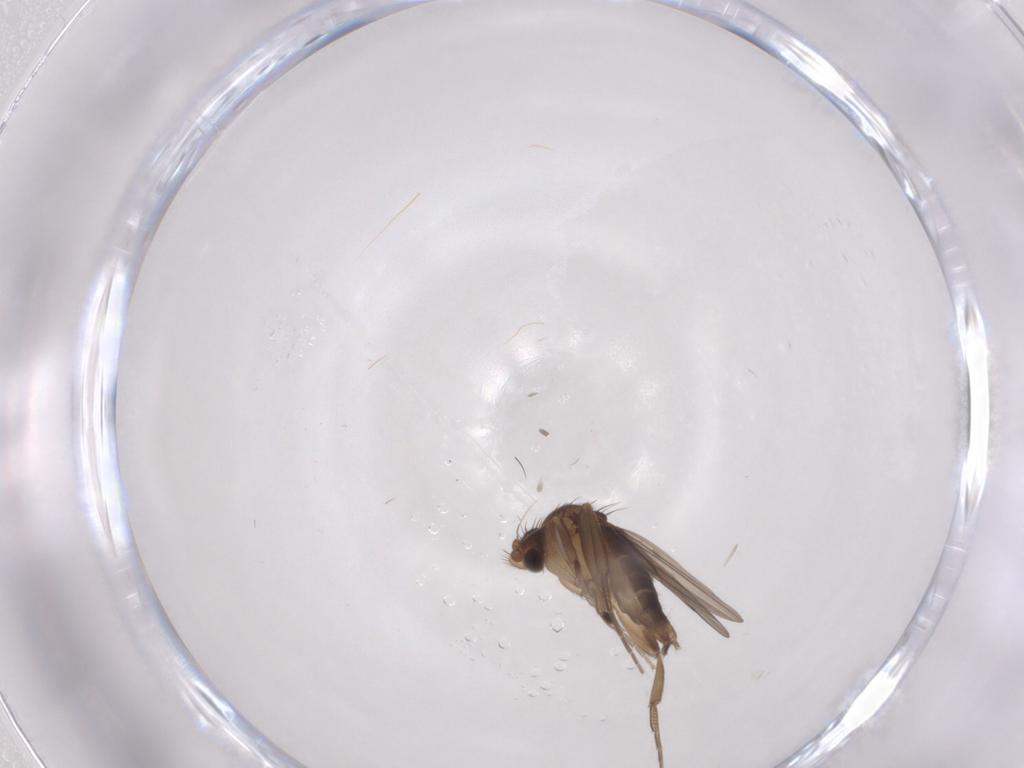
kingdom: Animalia
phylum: Arthropoda
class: Insecta
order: Diptera
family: Phoridae
